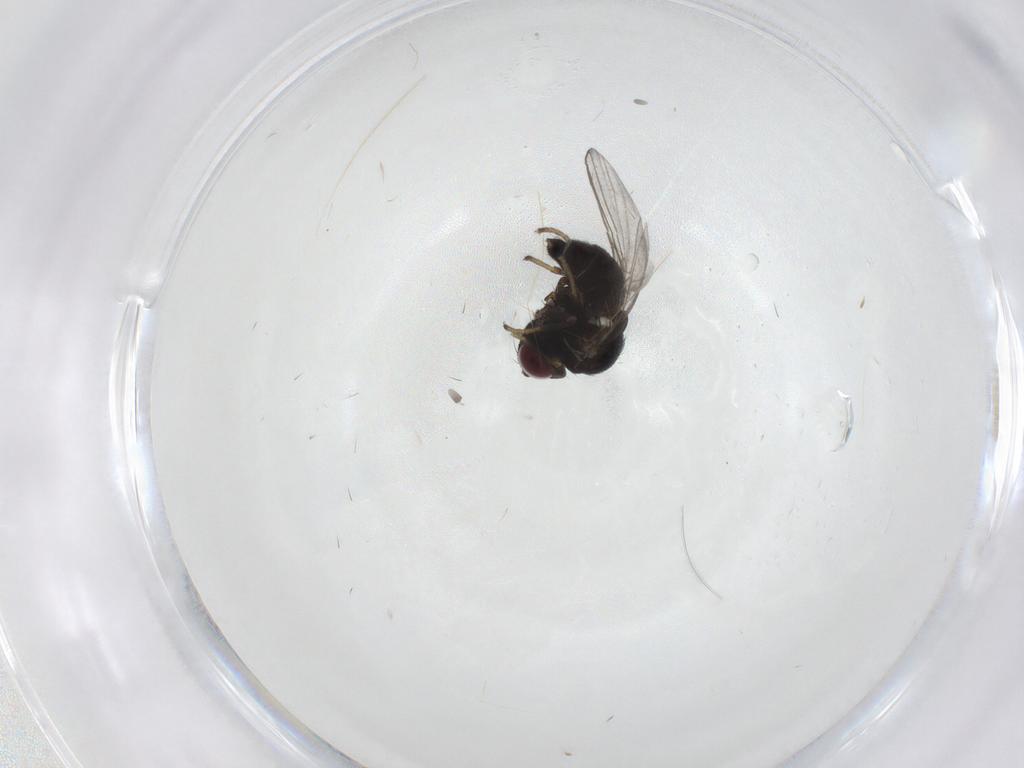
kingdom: Animalia
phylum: Arthropoda
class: Insecta
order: Diptera
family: Agromyzidae
